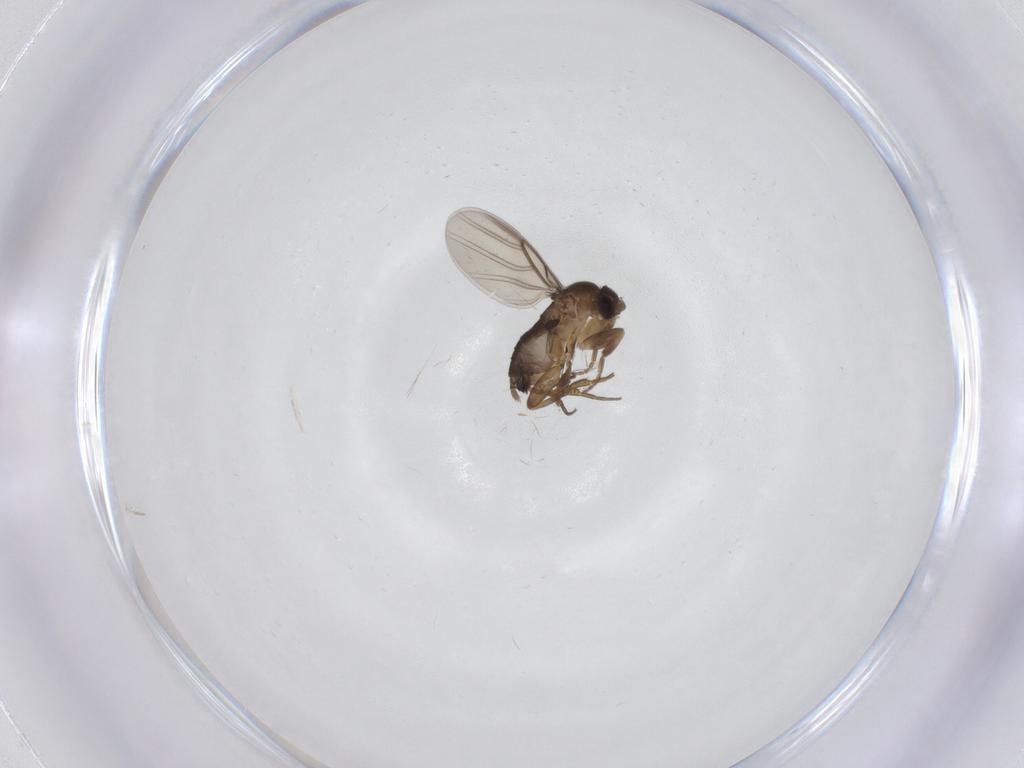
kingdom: Animalia
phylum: Arthropoda
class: Insecta
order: Diptera
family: Phoridae
